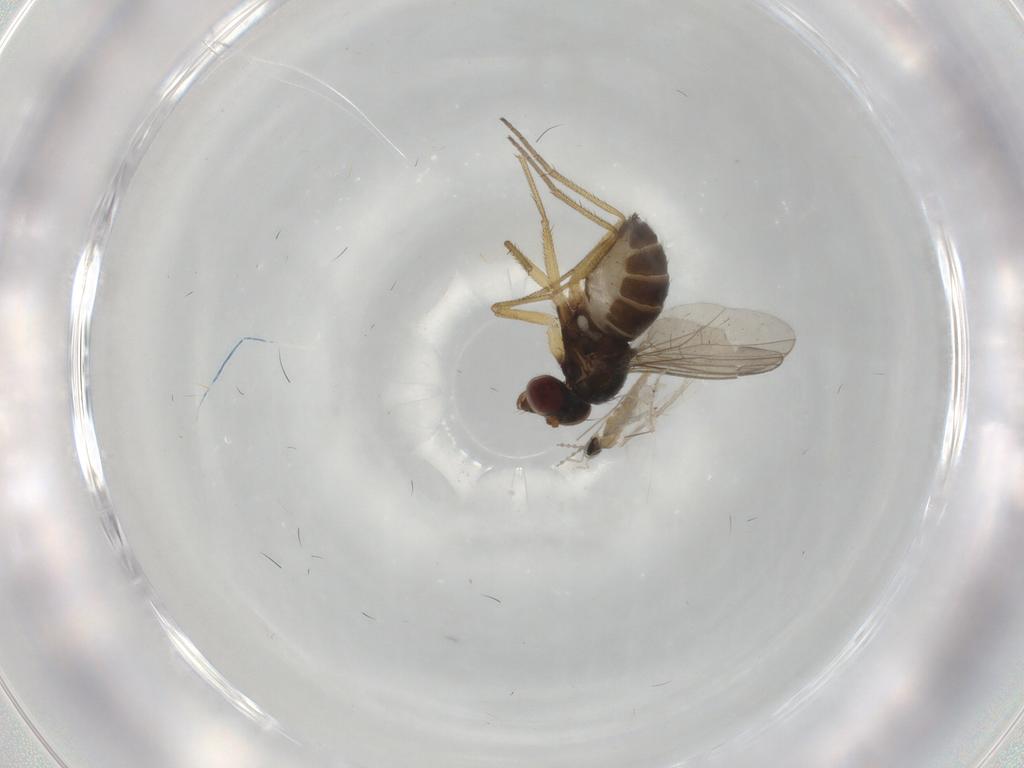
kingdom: Animalia
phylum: Arthropoda
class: Insecta
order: Diptera
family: Dolichopodidae
